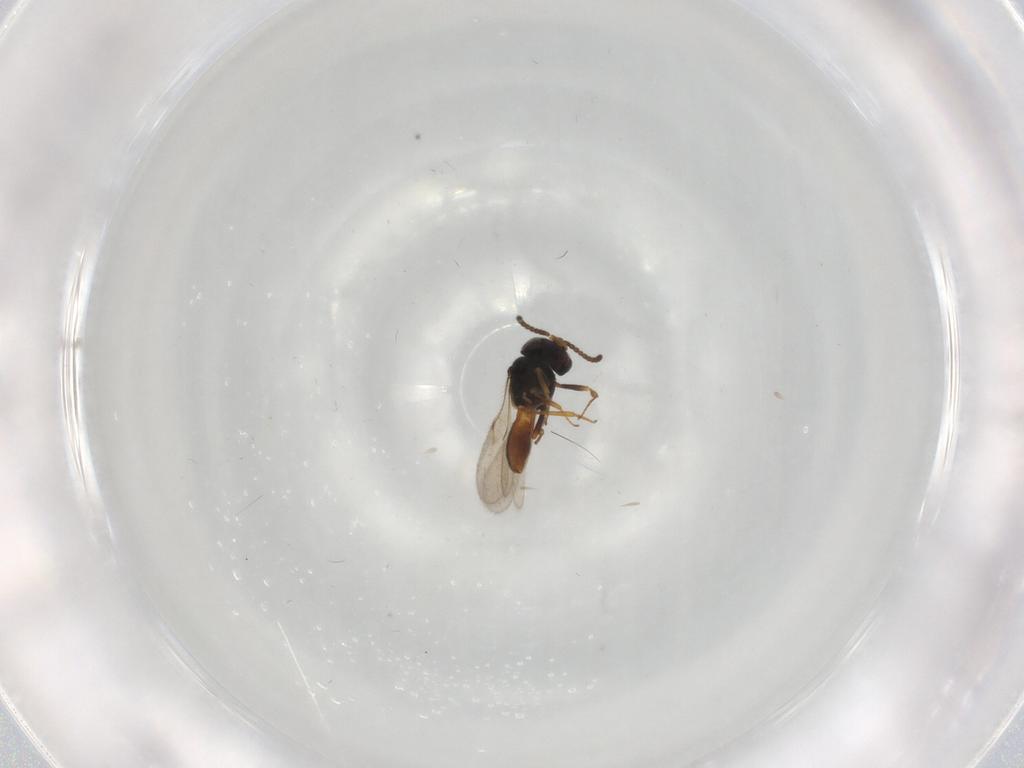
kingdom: Animalia
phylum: Arthropoda
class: Insecta
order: Hymenoptera
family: Scelionidae
